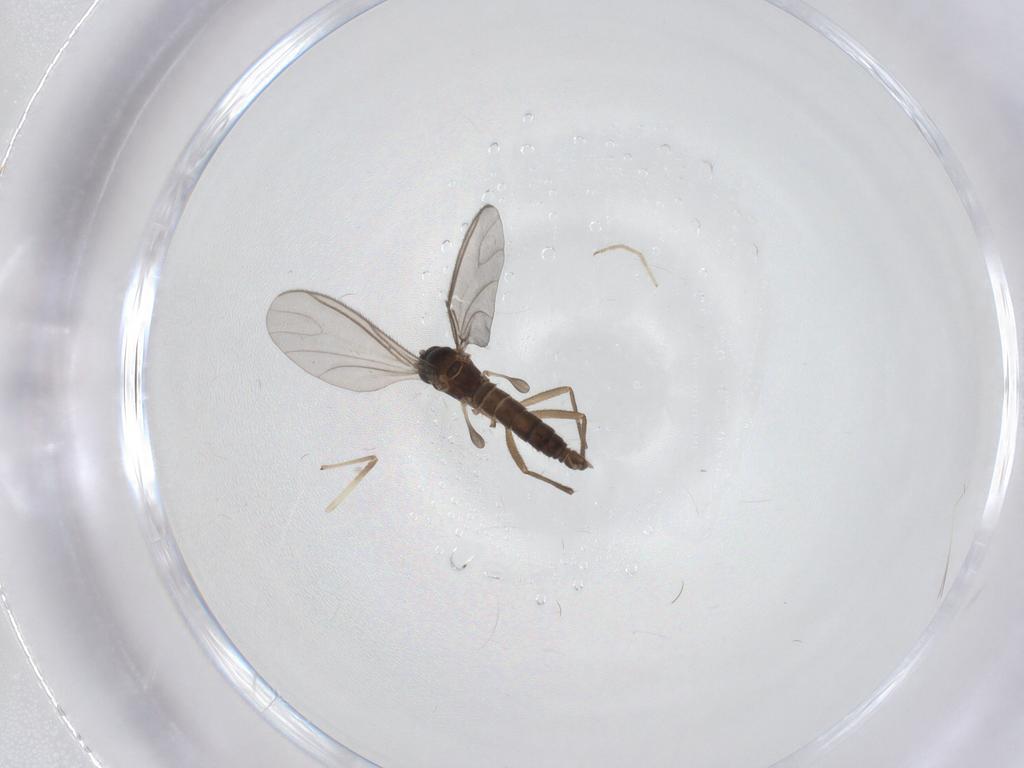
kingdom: Animalia
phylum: Arthropoda
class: Insecta
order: Diptera
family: Sciaridae
